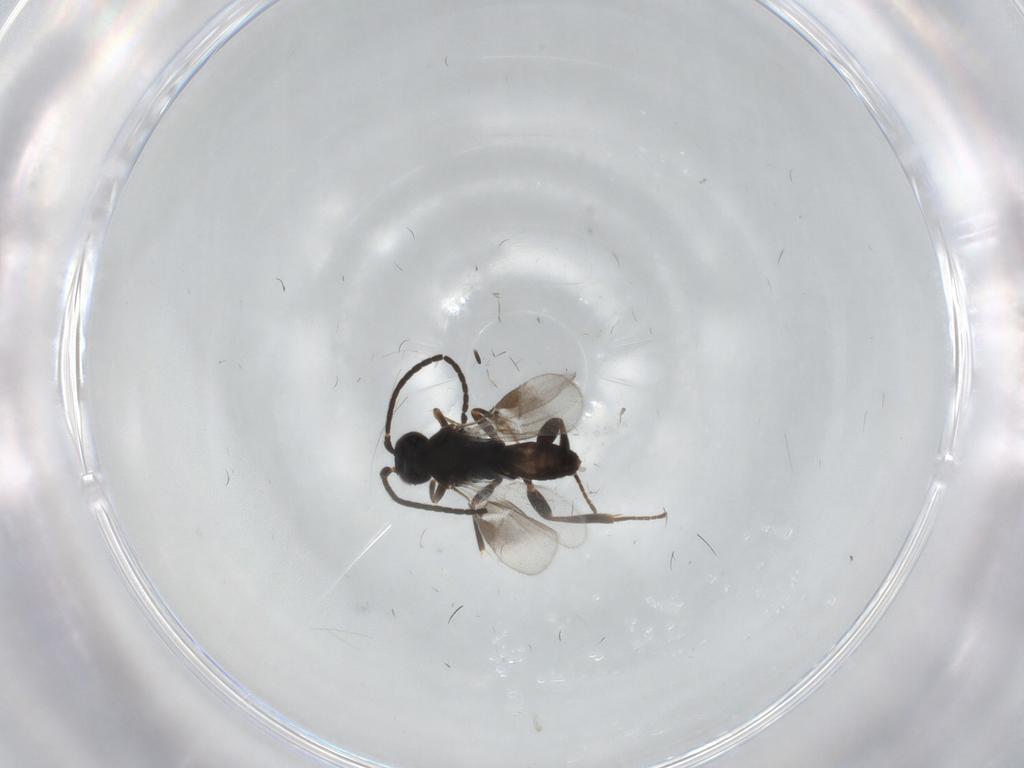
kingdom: Animalia
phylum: Arthropoda
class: Insecta
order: Hymenoptera
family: Braconidae
